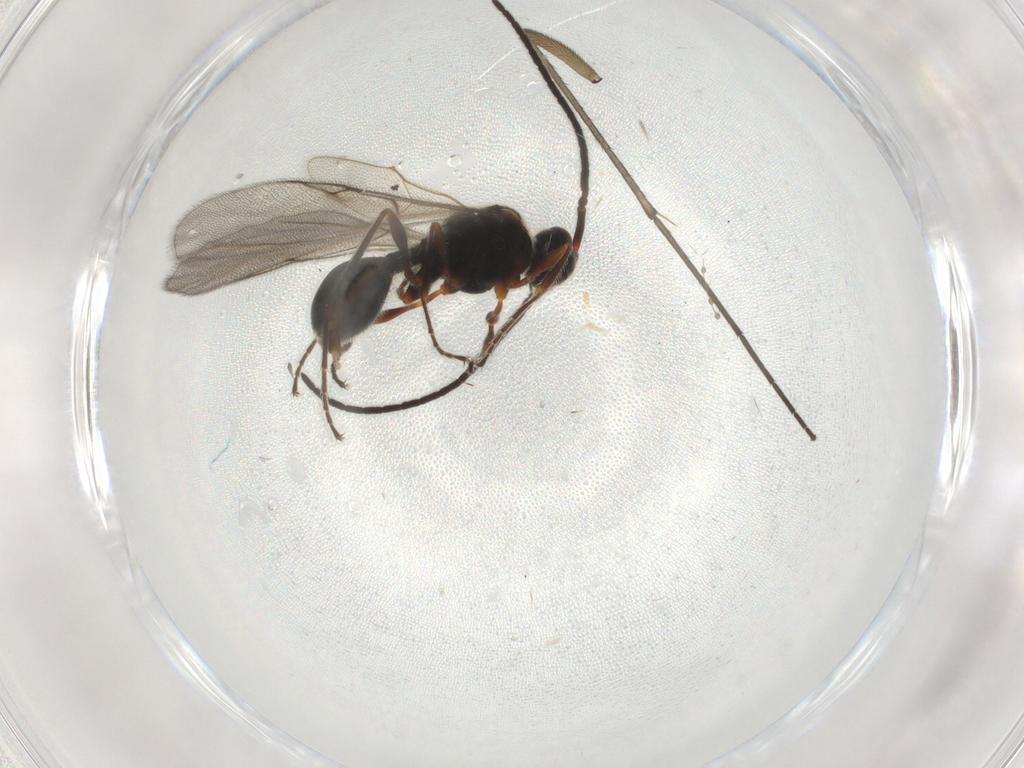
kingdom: Animalia
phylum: Arthropoda
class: Insecta
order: Hymenoptera
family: Diapriidae
